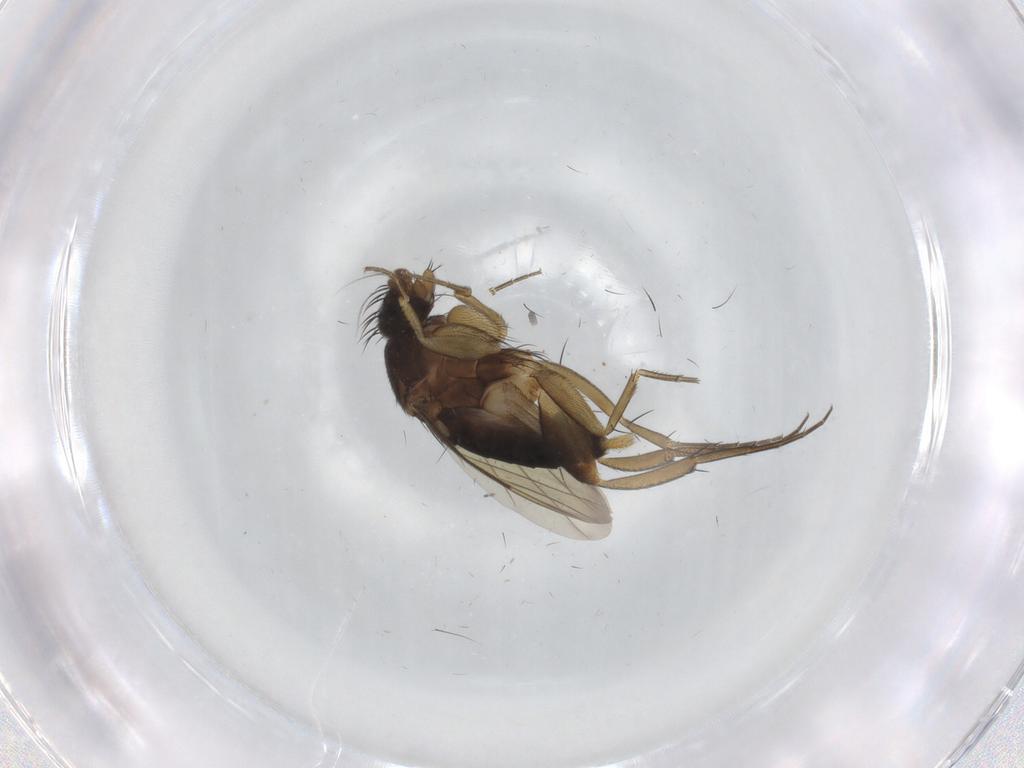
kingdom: Animalia
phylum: Arthropoda
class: Insecta
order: Diptera
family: Phoridae
